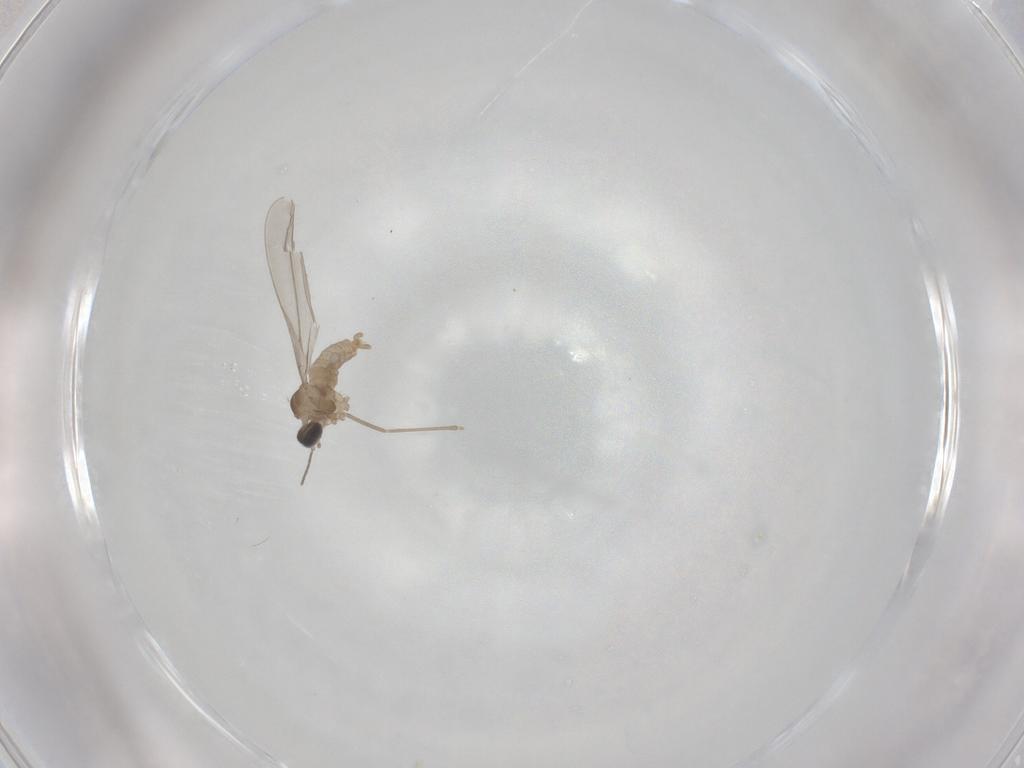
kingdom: Animalia
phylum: Arthropoda
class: Insecta
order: Diptera
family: Cecidomyiidae
